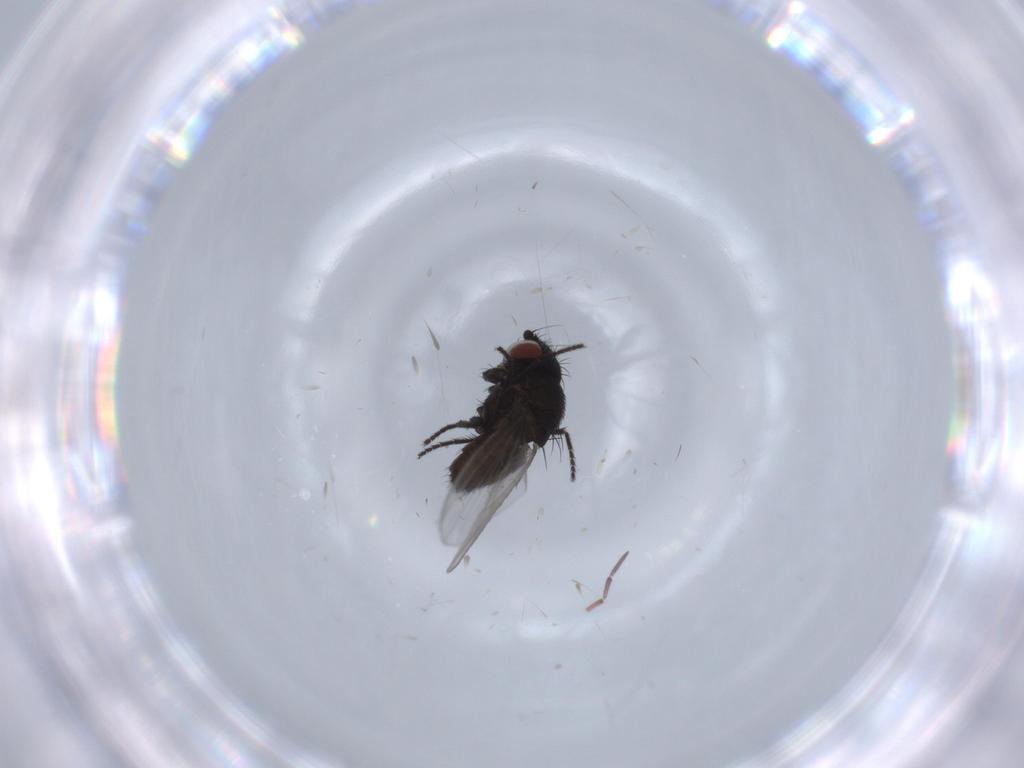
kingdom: Animalia
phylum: Arthropoda
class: Insecta
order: Diptera
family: Milichiidae
